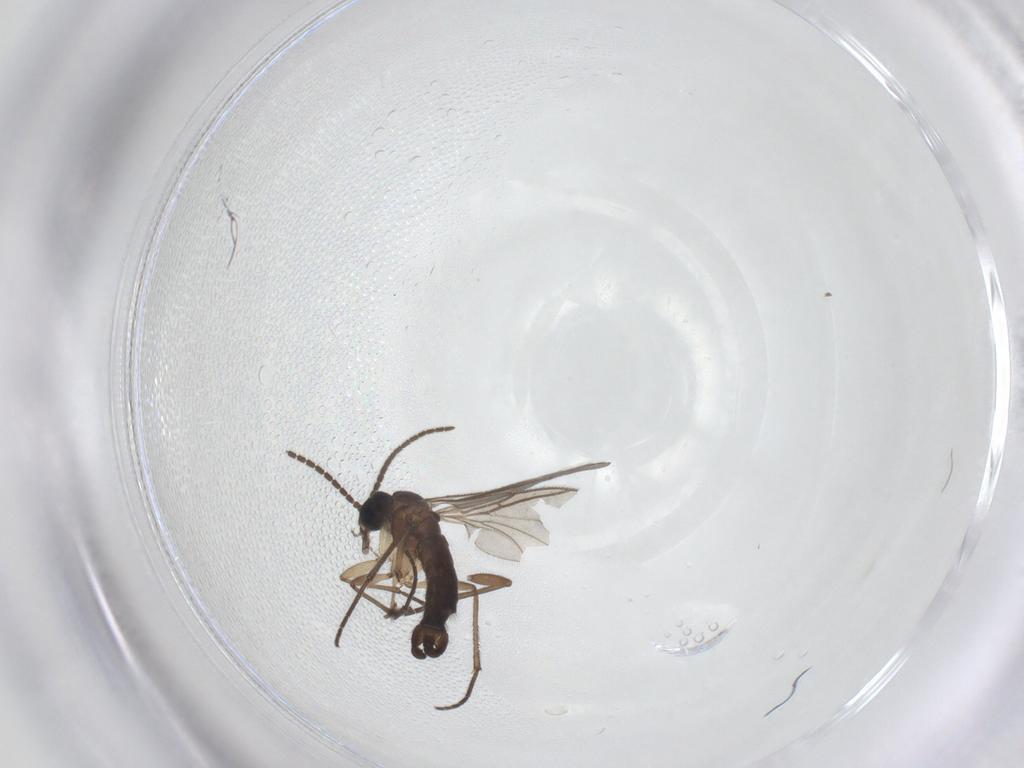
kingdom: Animalia
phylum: Arthropoda
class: Insecta
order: Diptera
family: Sciaridae
